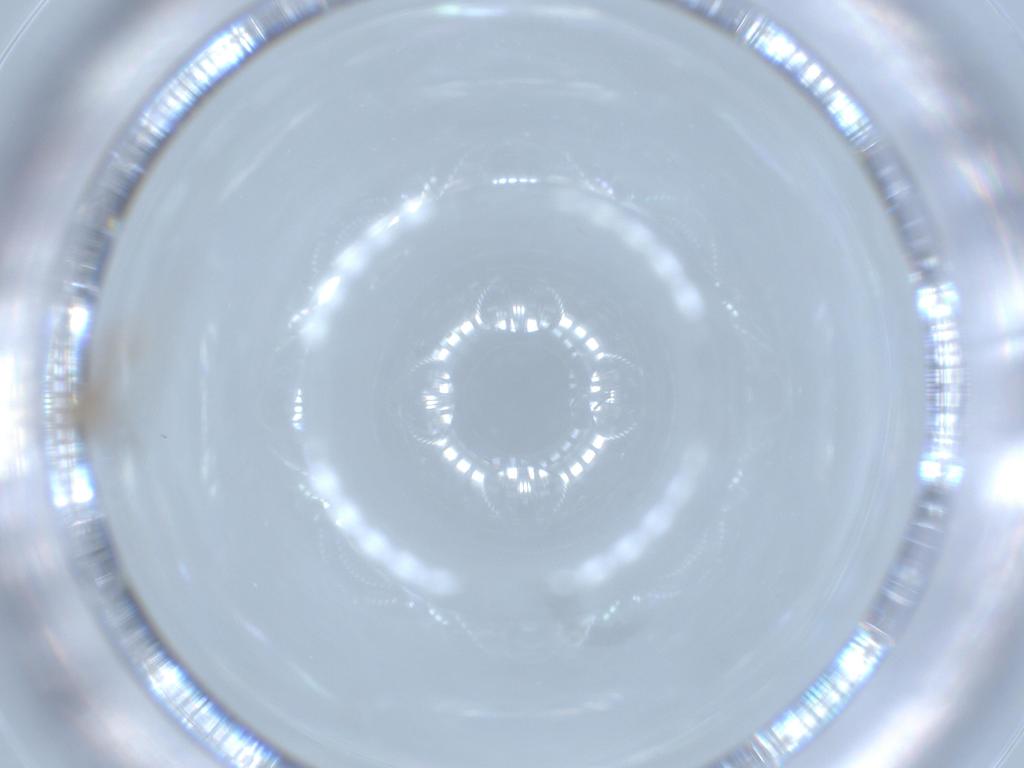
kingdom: Animalia
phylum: Arthropoda
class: Insecta
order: Diptera
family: Cecidomyiidae
